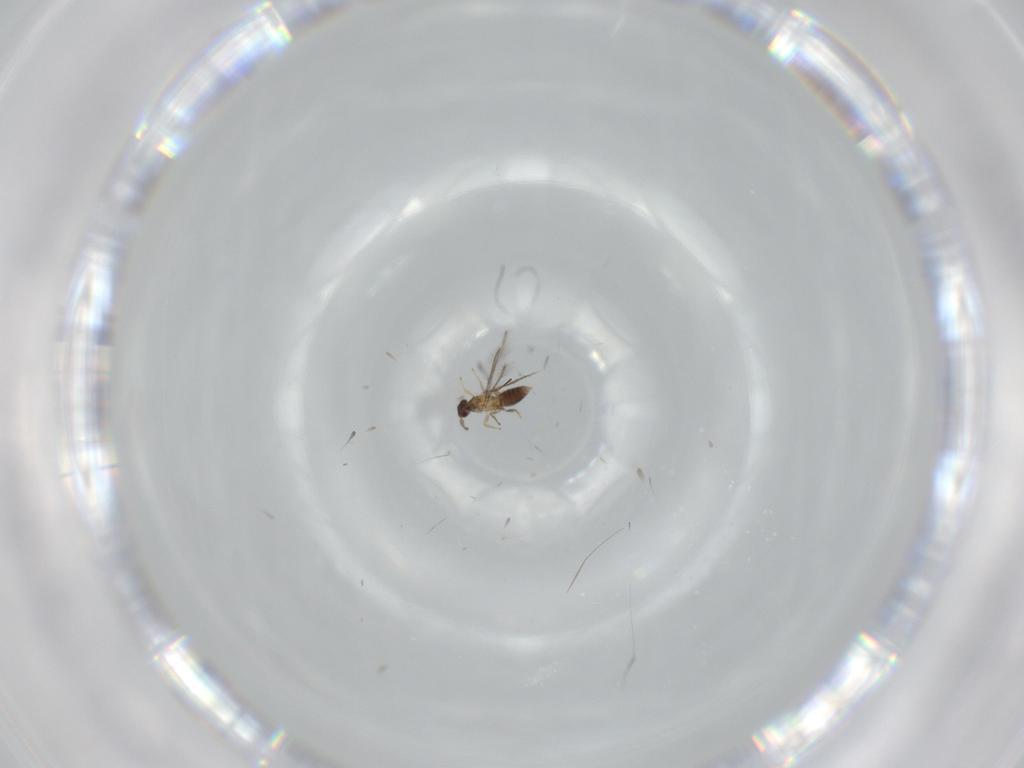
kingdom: Animalia
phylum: Arthropoda
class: Insecta
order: Hymenoptera
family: Mymaridae
